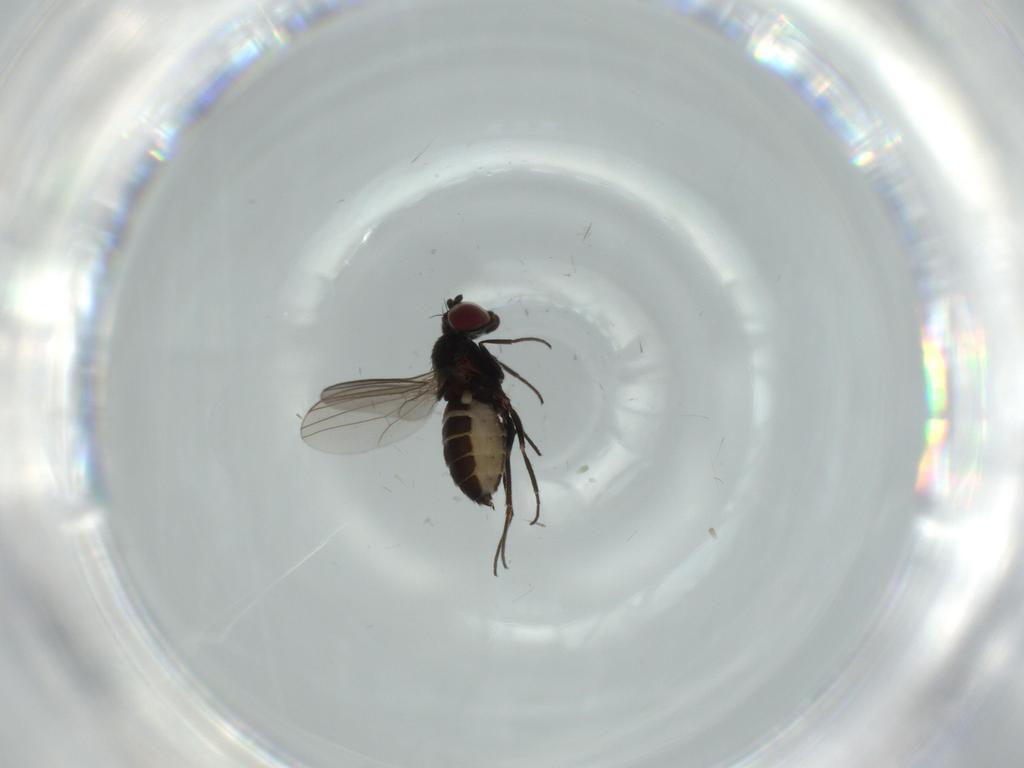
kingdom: Animalia
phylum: Arthropoda
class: Insecta
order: Diptera
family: Dolichopodidae
